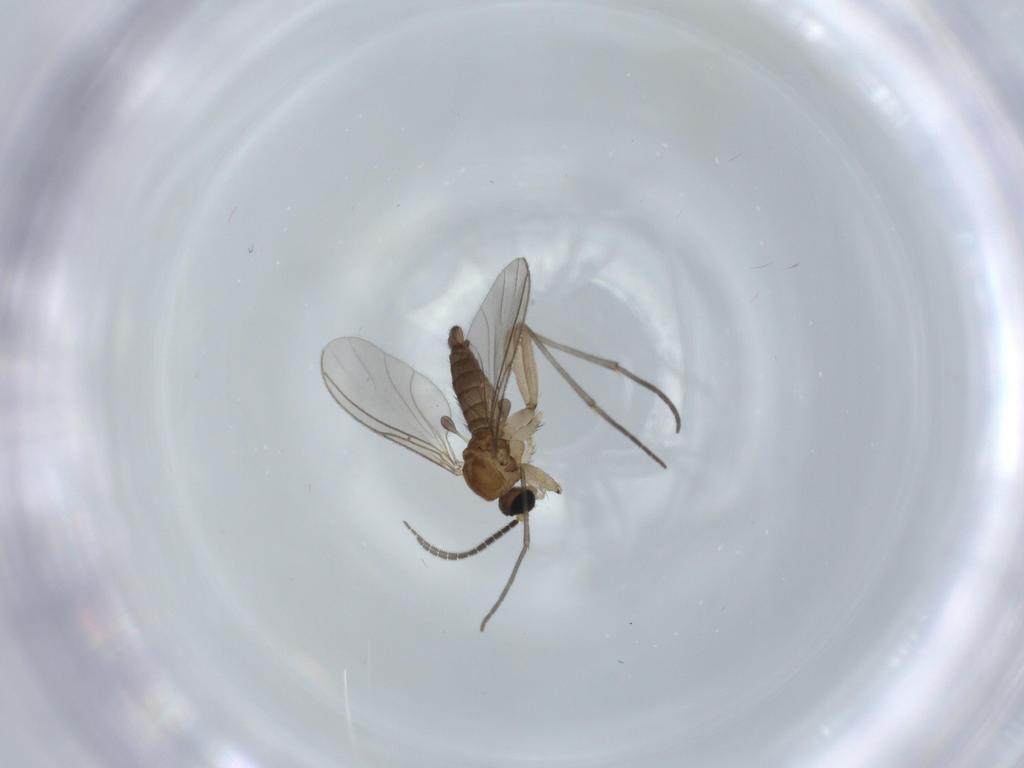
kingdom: Animalia
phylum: Arthropoda
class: Insecta
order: Diptera
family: Sciaridae
